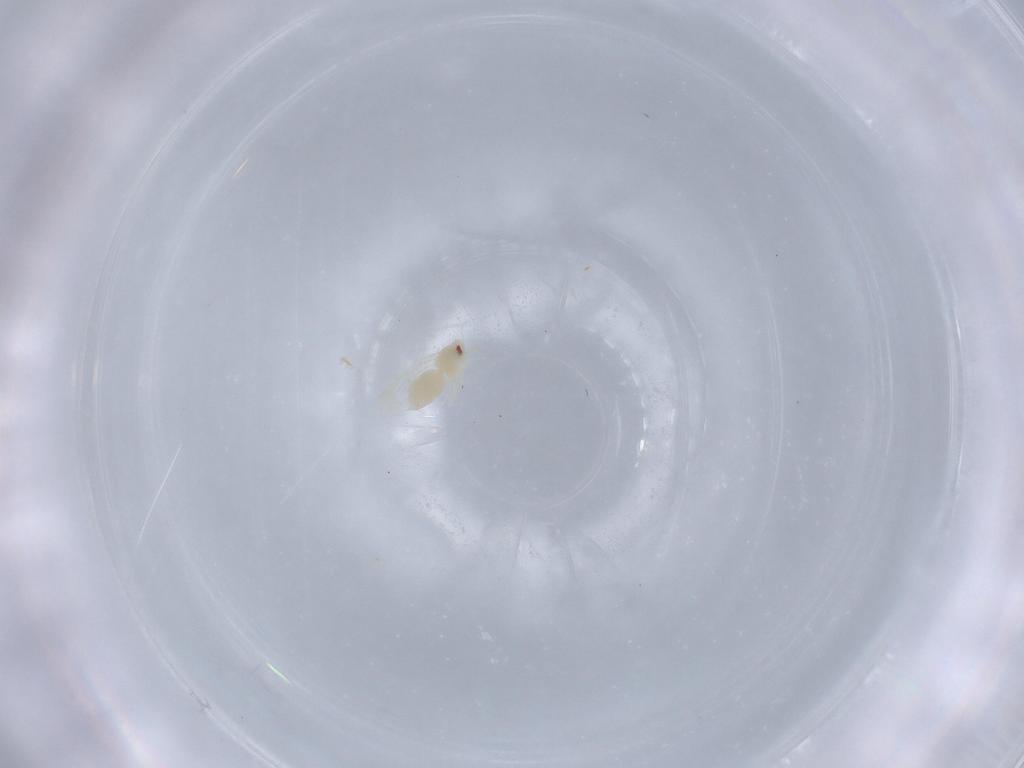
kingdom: Animalia
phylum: Arthropoda
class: Insecta
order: Hemiptera
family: Aleyrodidae
